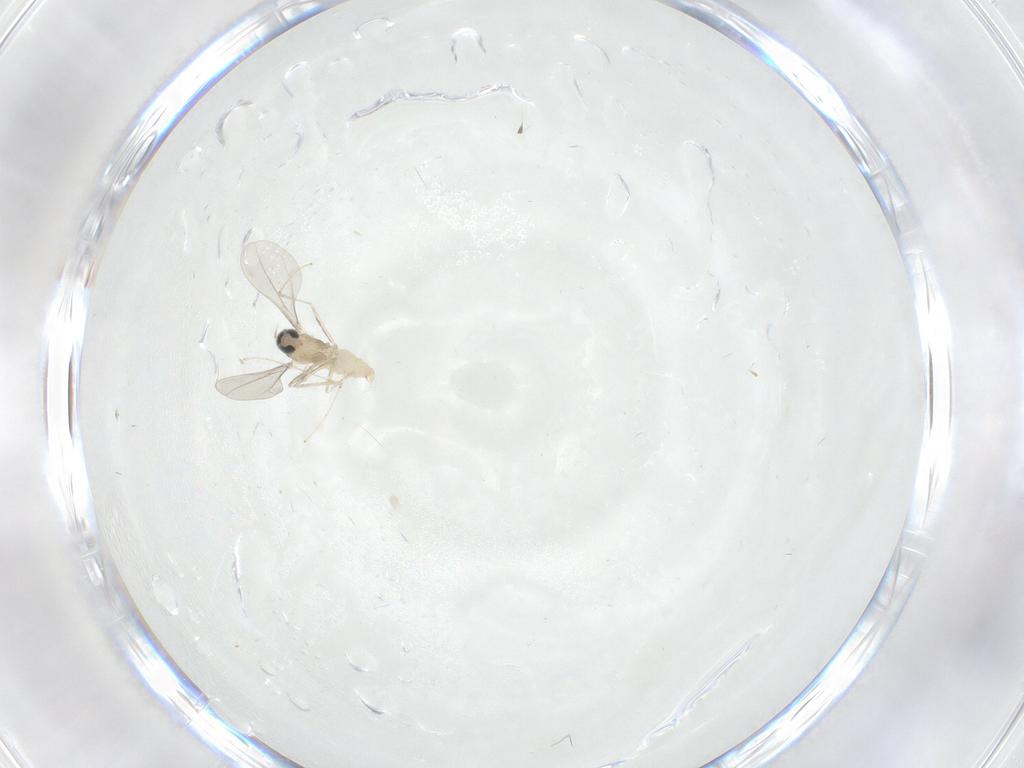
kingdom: Animalia
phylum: Arthropoda
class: Insecta
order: Diptera
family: Cecidomyiidae
